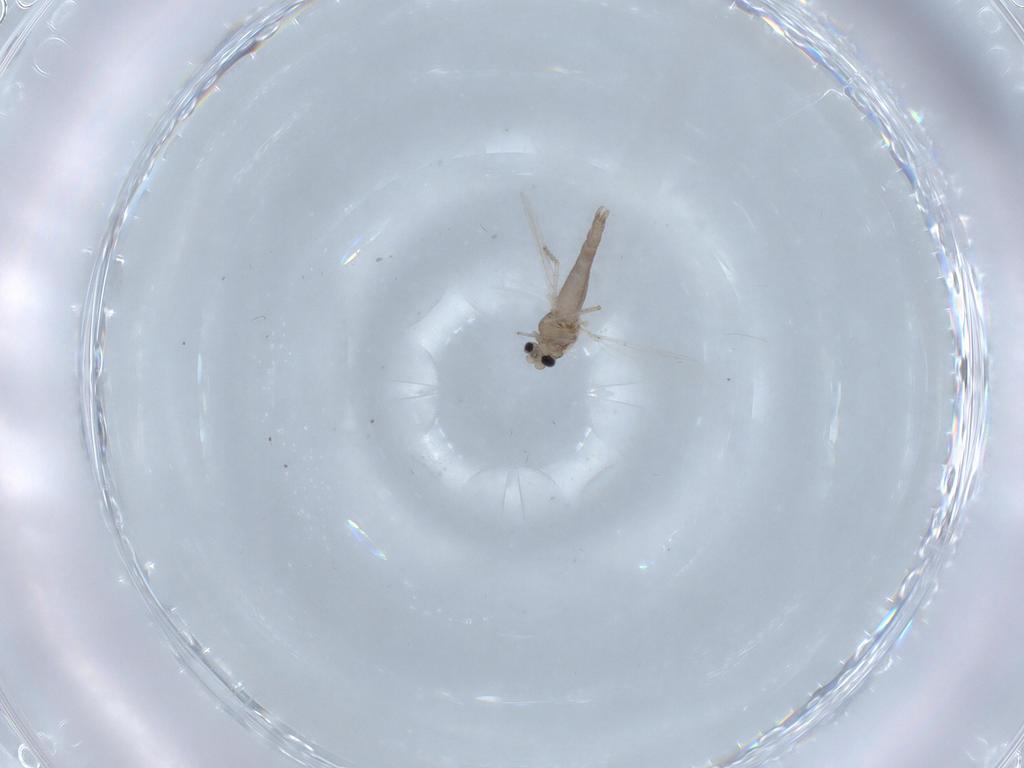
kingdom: Animalia
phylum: Arthropoda
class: Insecta
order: Diptera
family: Chironomidae
